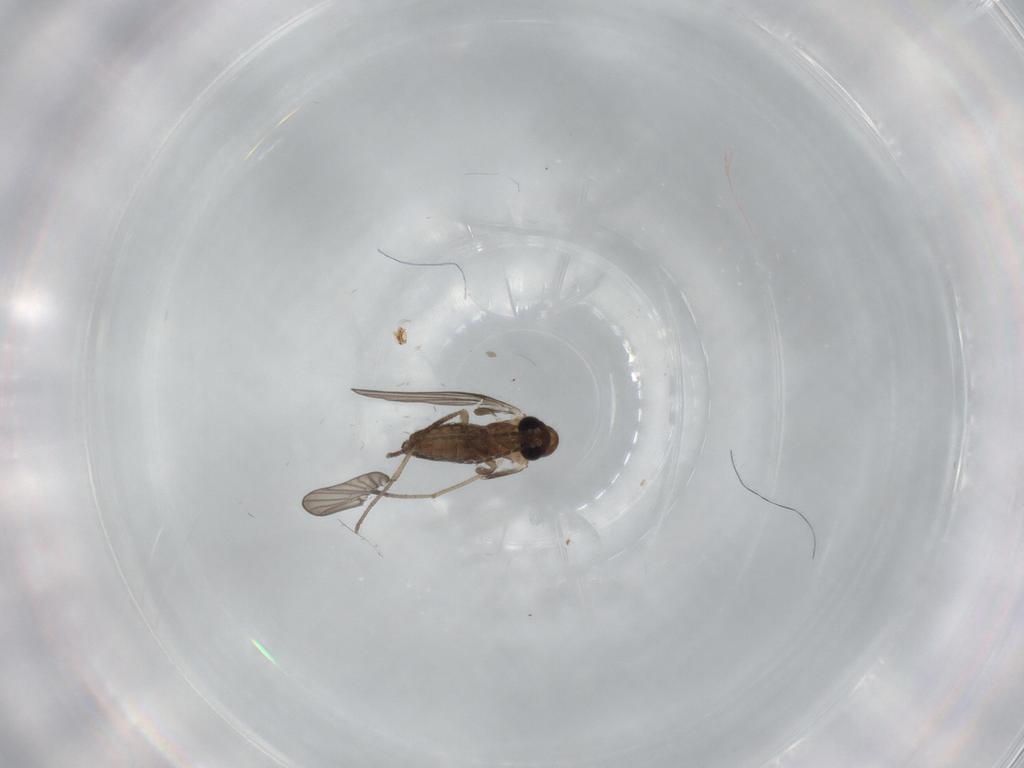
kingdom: Animalia
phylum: Arthropoda
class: Insecta
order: Diptera
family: Psychodidae
